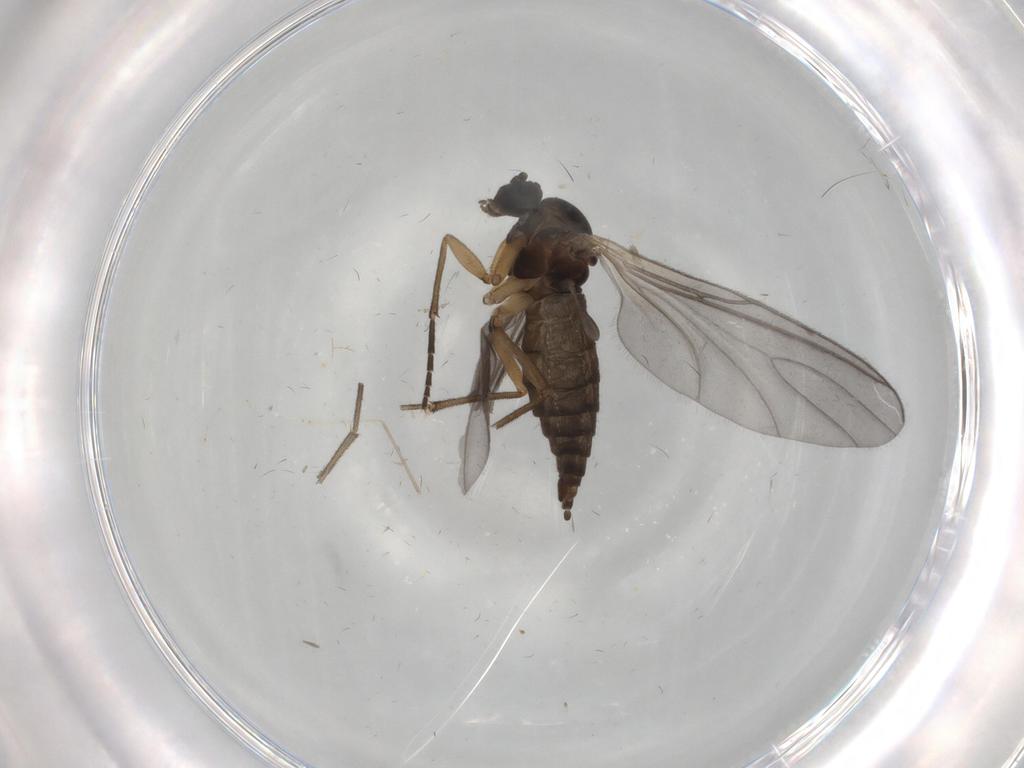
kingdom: Animalia
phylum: Arthropoda
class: Insecta
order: Diptera
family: Sciaridae
